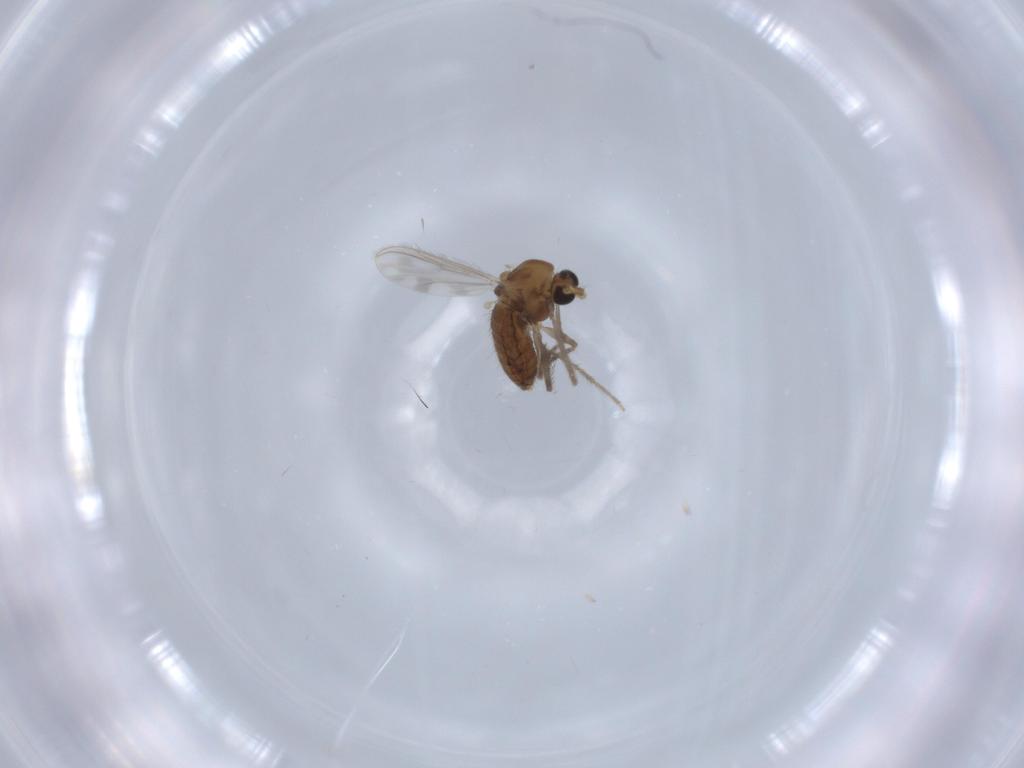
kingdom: Animalia
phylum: Arthropoda
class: Insecta
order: Diptera
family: Chironomidae
